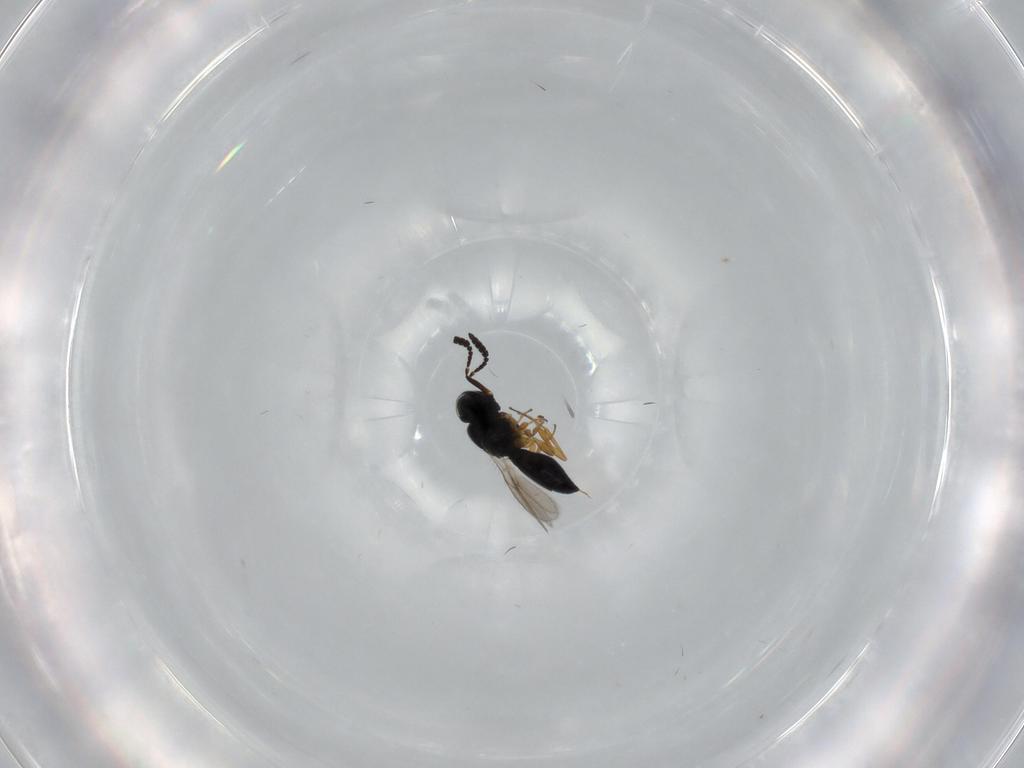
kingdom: Animalia
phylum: Arthropoda
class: Insecta
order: Hymenoptera
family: Scelionidae
